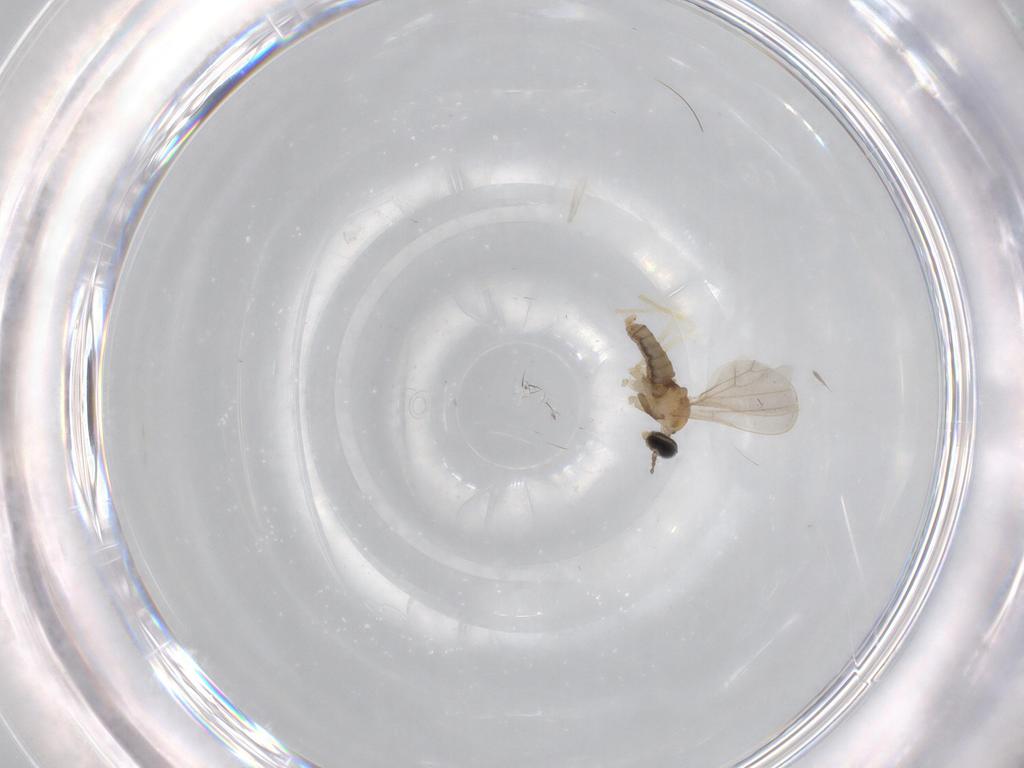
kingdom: Animalia
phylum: Arthropoda
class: Insecta
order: Diptera
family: Cecidomyiidae
